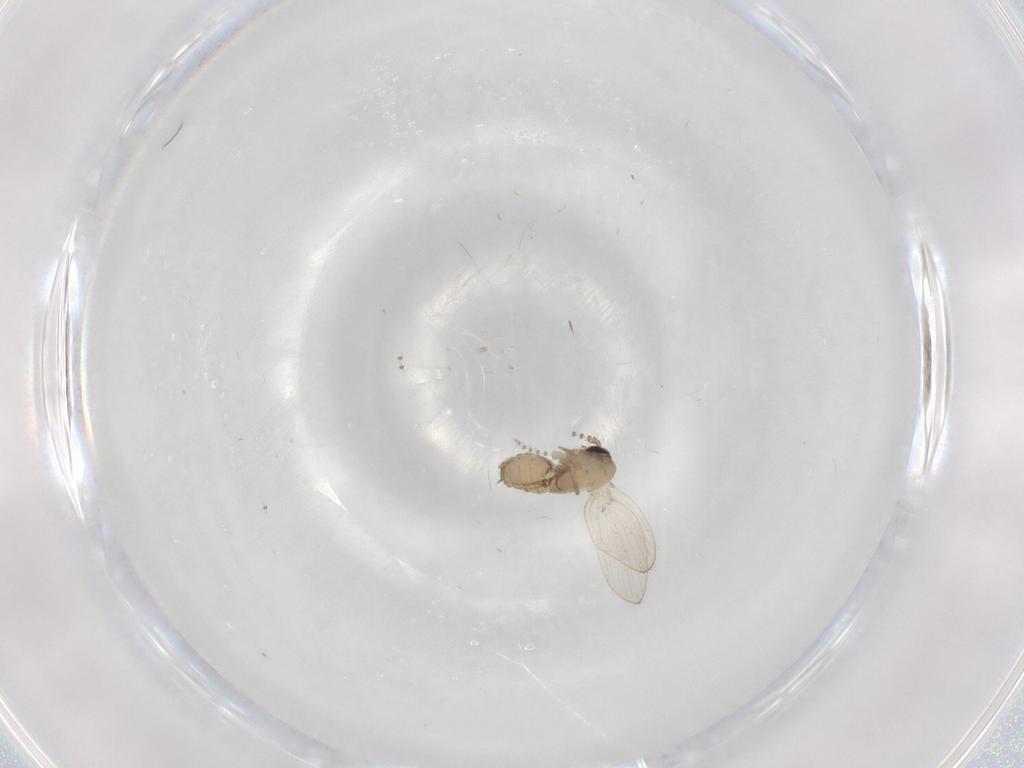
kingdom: Animalia
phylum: Arthropoda
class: Insecta
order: Diptera
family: Psychodidae
